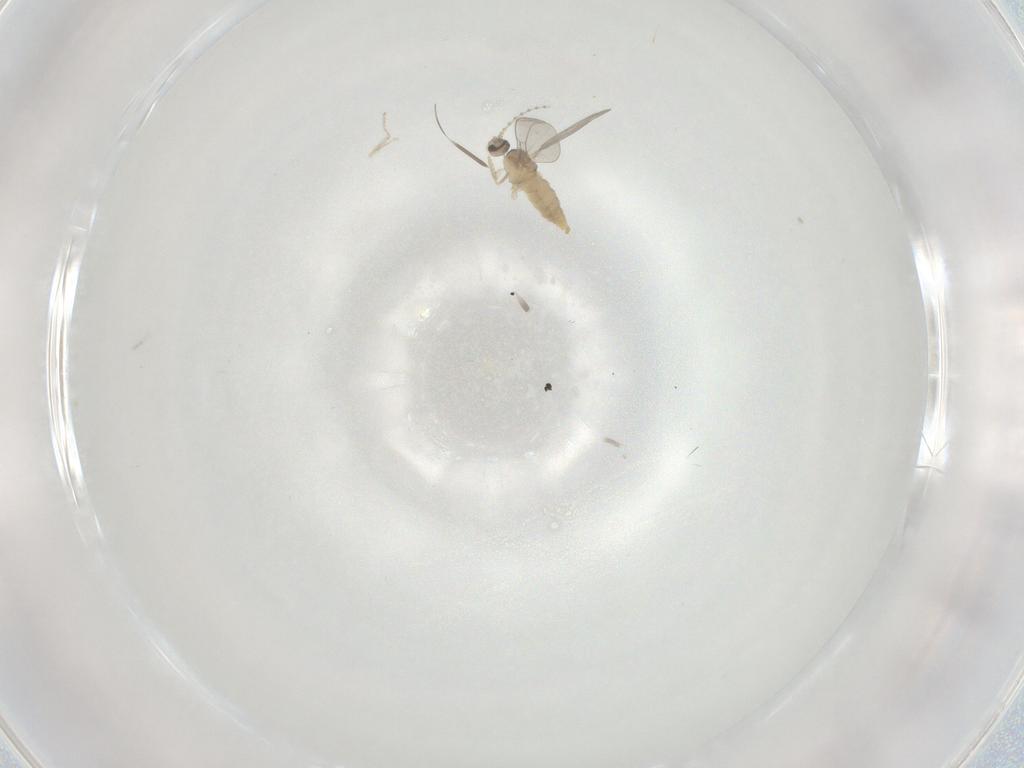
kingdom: Animalia
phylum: Arthropoda
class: Insecta
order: Diptera
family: Cecidomyiidae
